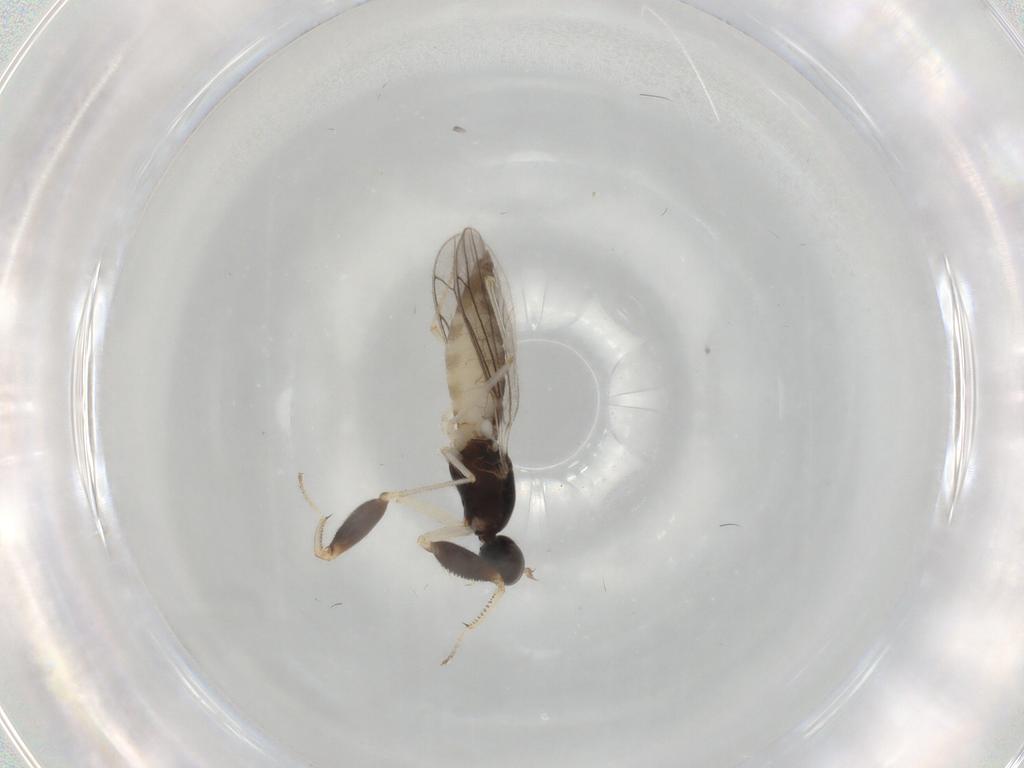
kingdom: Animalia
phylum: Arthropoda
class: Insecta
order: Diptera
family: Empididae
